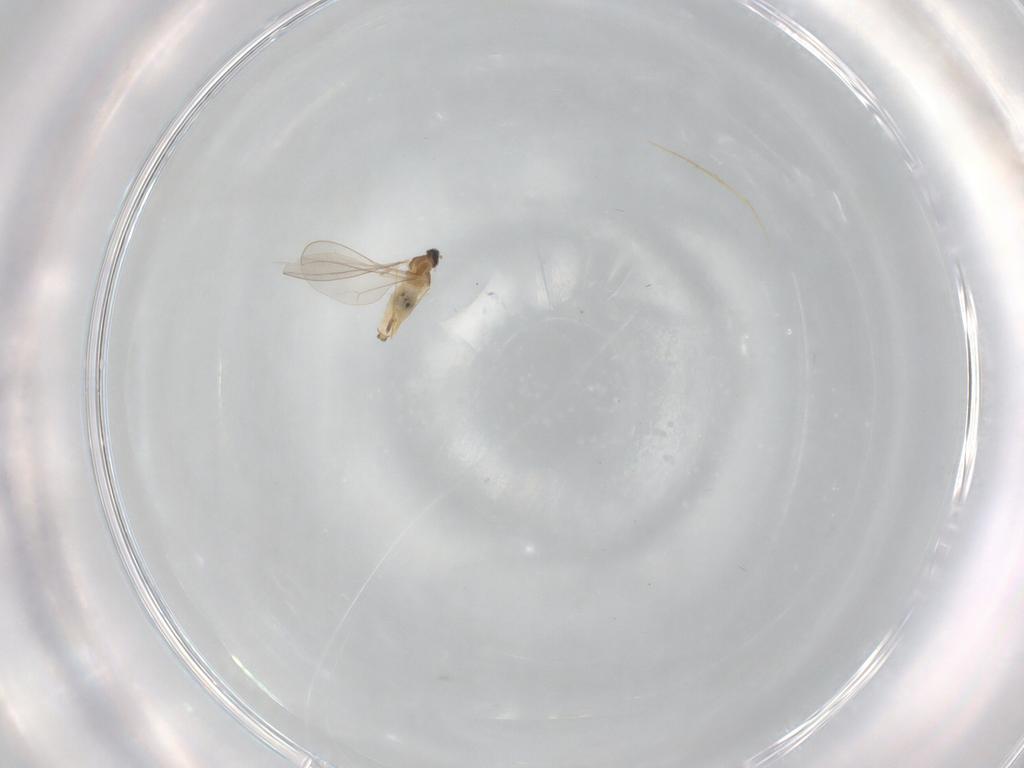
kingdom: Animalia
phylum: Arthropoda
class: Insecta
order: Diptera
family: Cecidomyiidae
